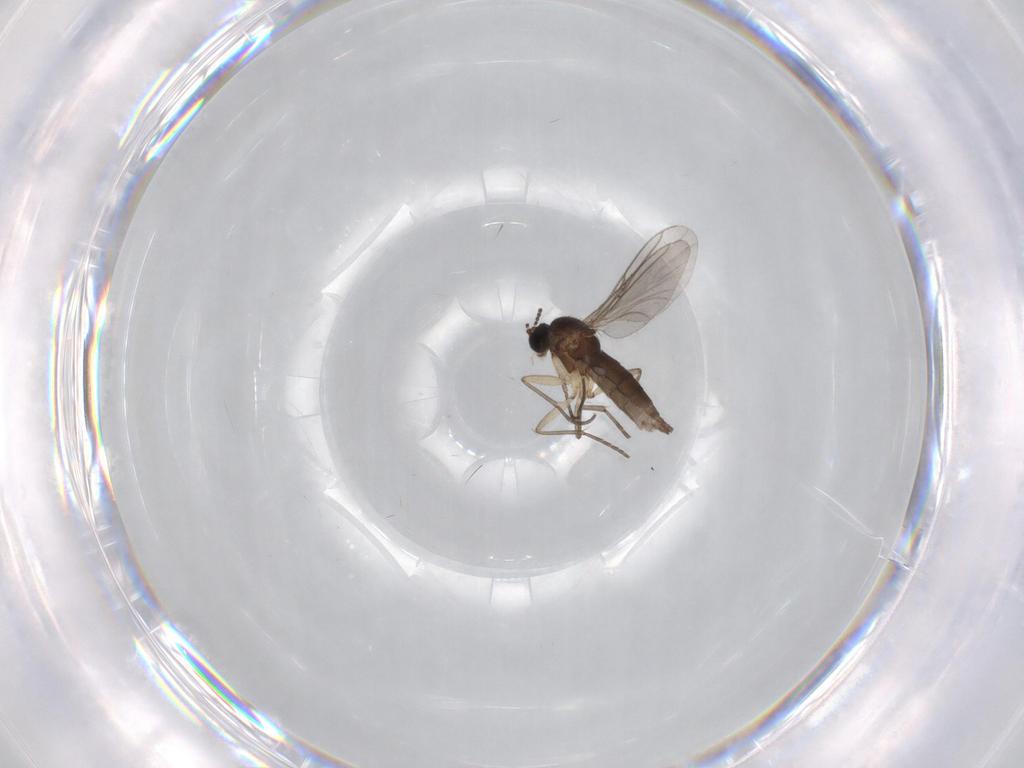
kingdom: Animalia
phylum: Arthropoda
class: Insecta
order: Diptera
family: Sciaridae
